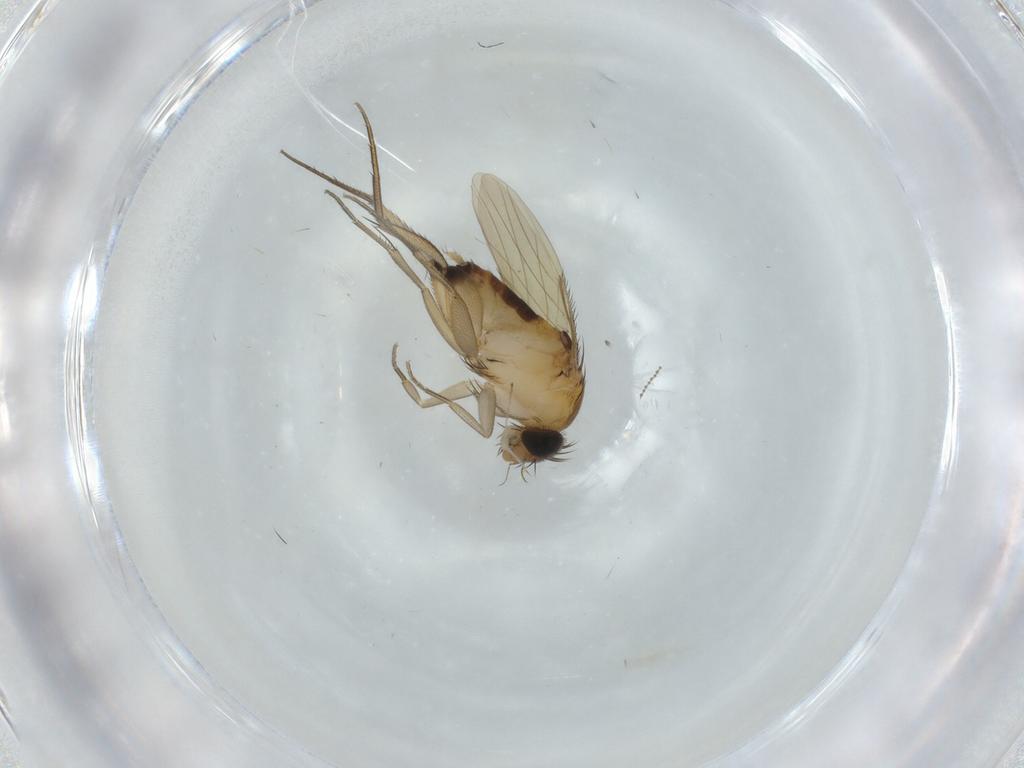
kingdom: Animalia
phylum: Arthropoda
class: Insecta
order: Diptera
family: Phoridae
